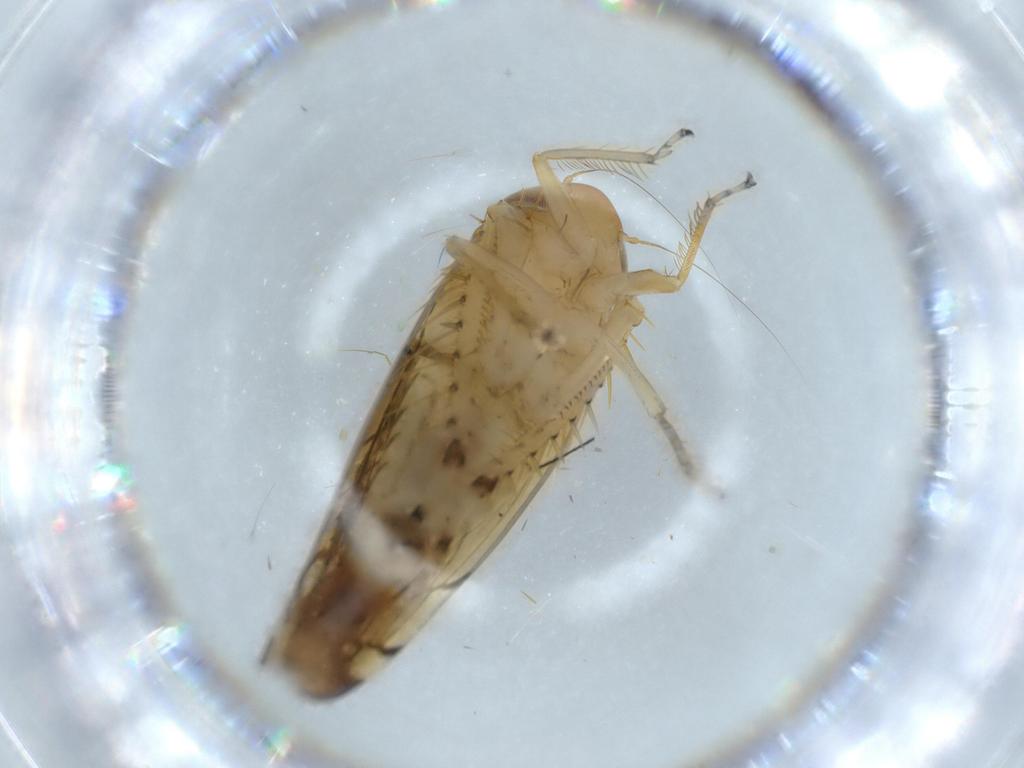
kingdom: Animalia
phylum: Arthropoda
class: Insecta
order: Hemiptera
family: Cicadellidae
